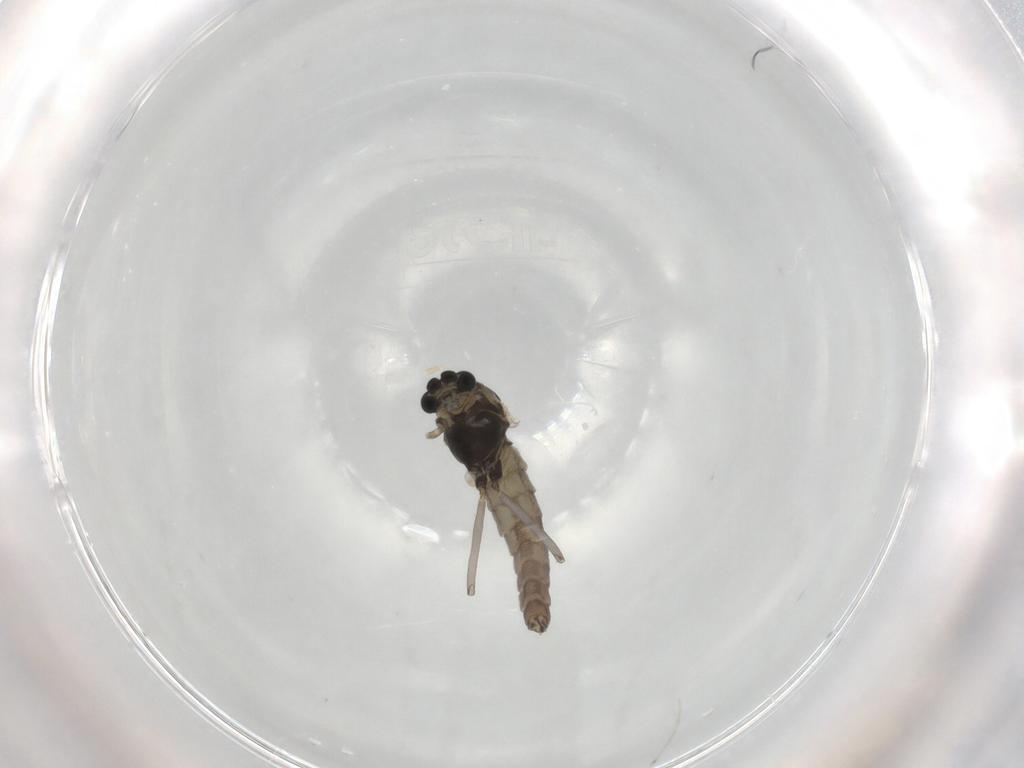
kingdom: Animalia
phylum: Arthropoda
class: Insecta
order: Diptera
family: Chironomidae
